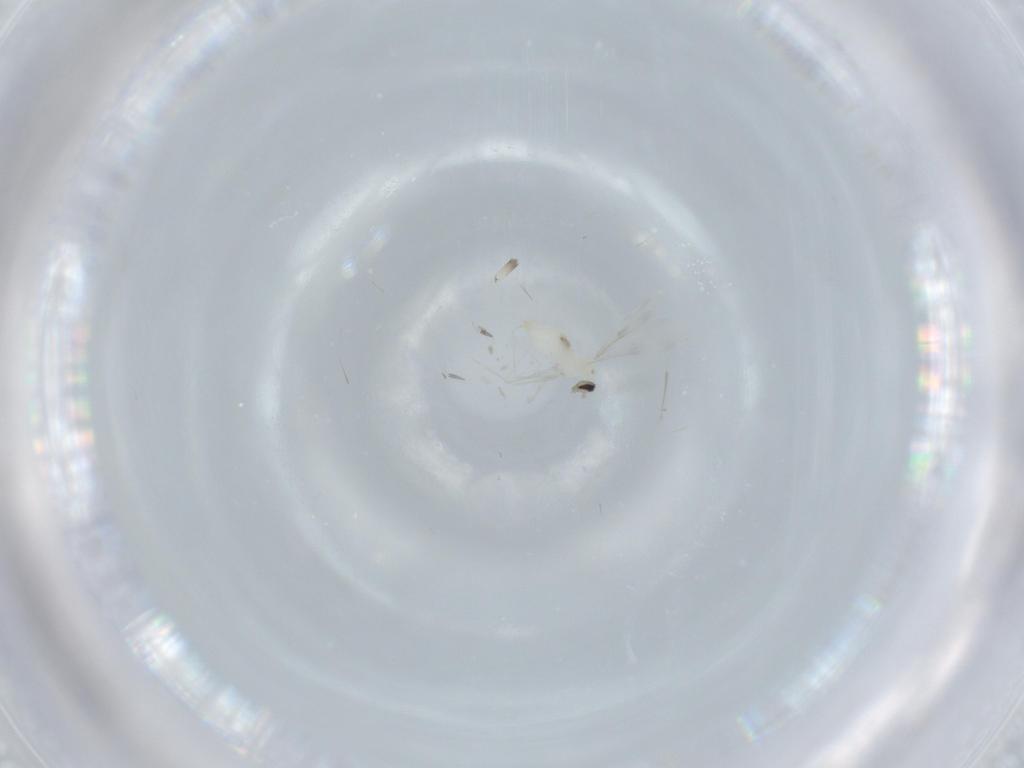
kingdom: Animalia
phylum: Arthropoda
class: Insecta
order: Diptera
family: Cecidomyiidae
